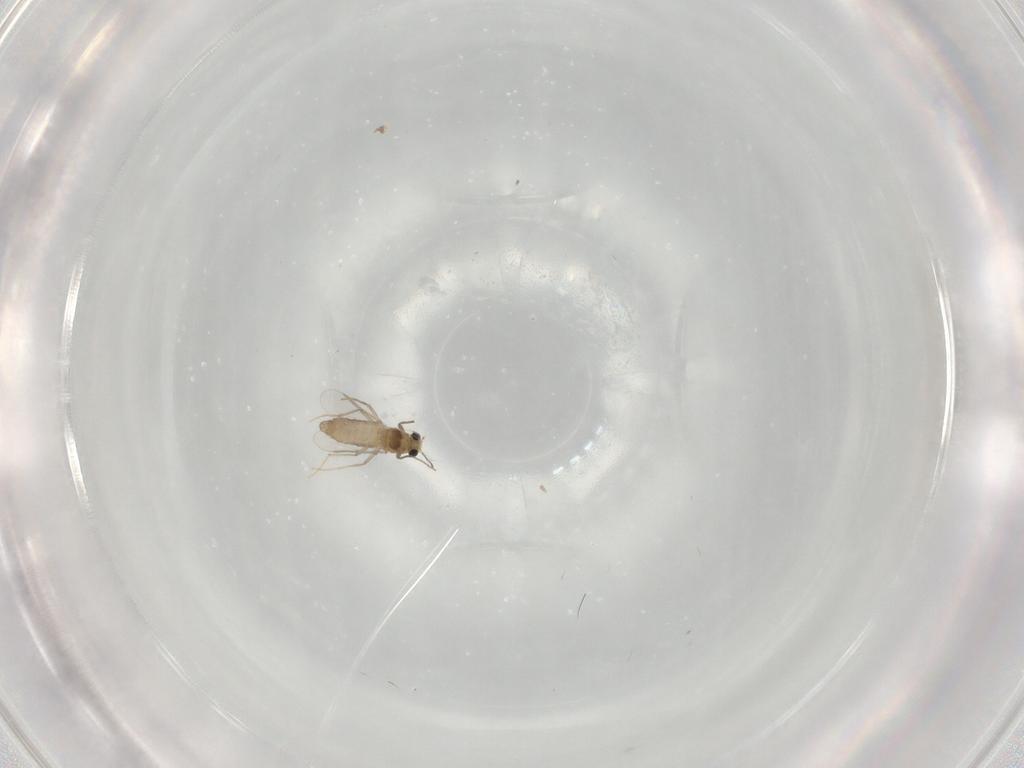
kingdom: Animalia
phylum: Arthropoda
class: Insecta
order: Diptera
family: Chironomidae
